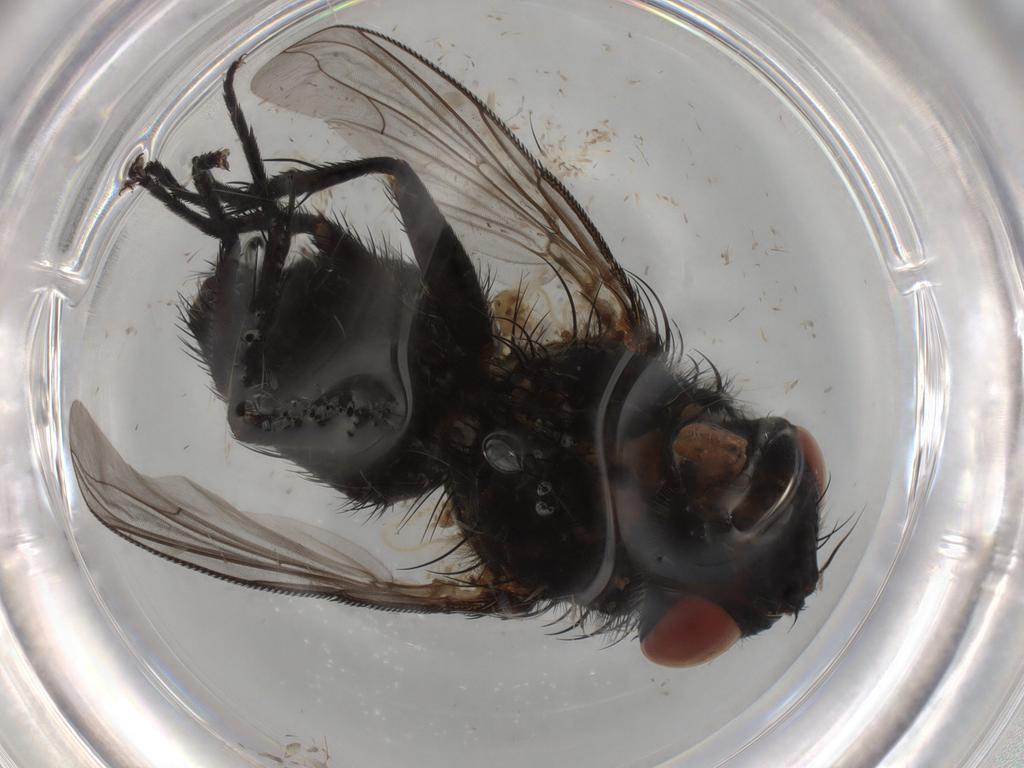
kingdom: Animalia
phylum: Arthropoda
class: Insecta
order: Diptera
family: Tachinidae
